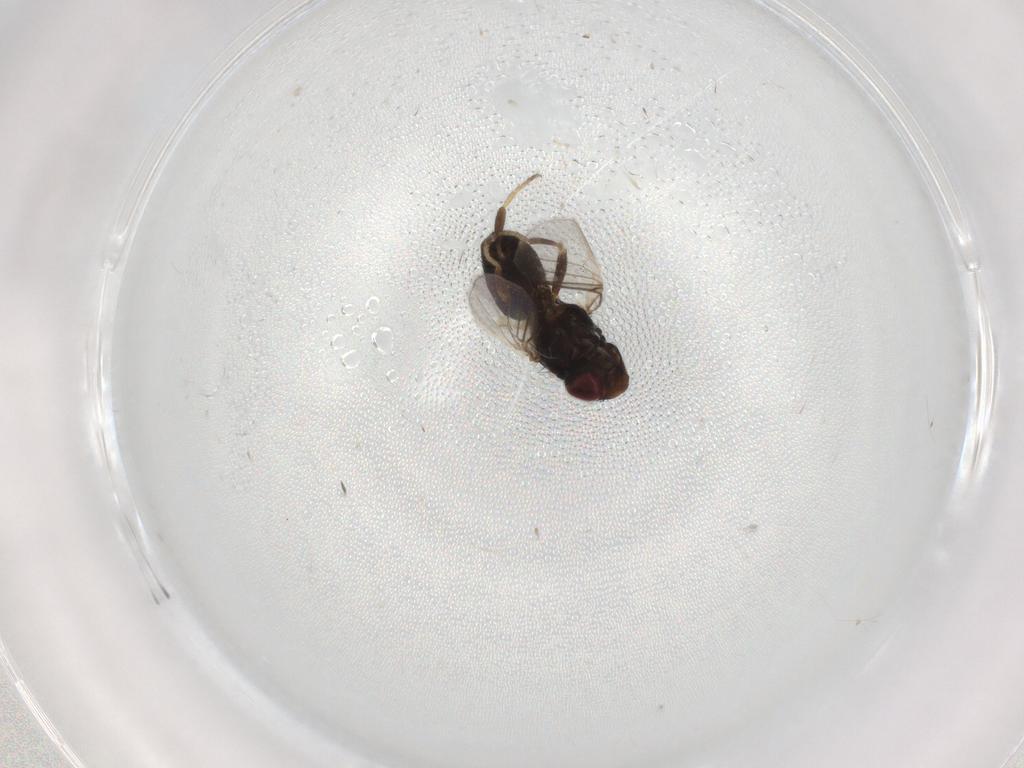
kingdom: Animalia
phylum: Arthropoda
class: Insecta
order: Diptera
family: Chloropidae
